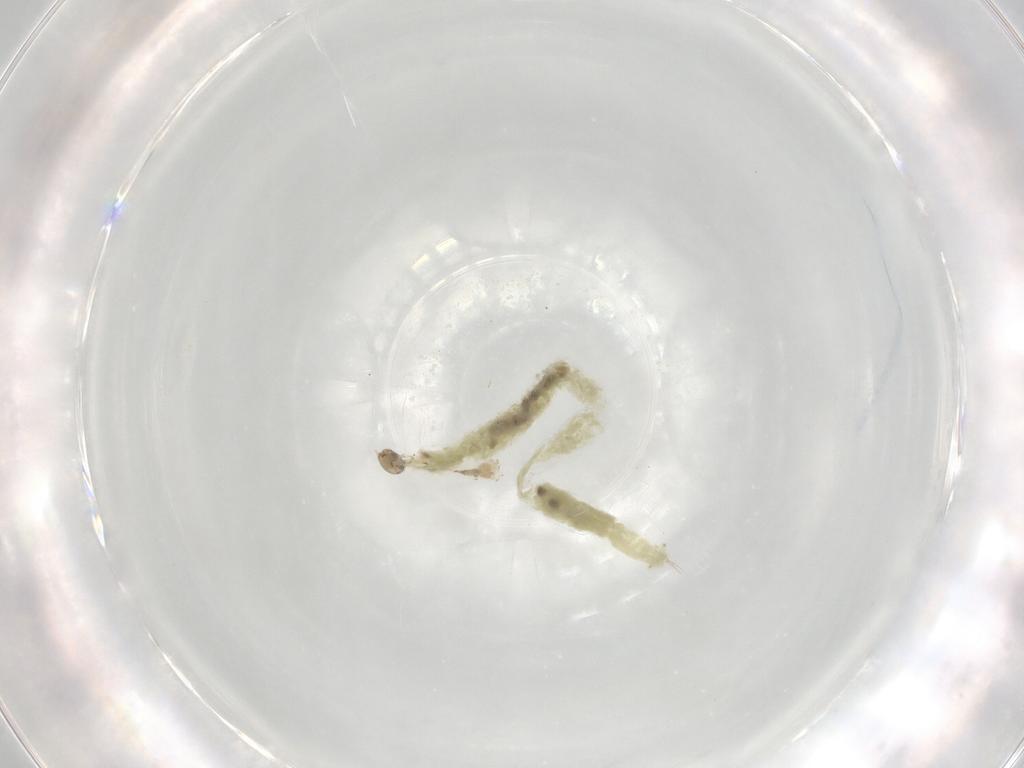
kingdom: Animalia
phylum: Arthropoda
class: Insecta
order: Diptera
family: Chironomidae
